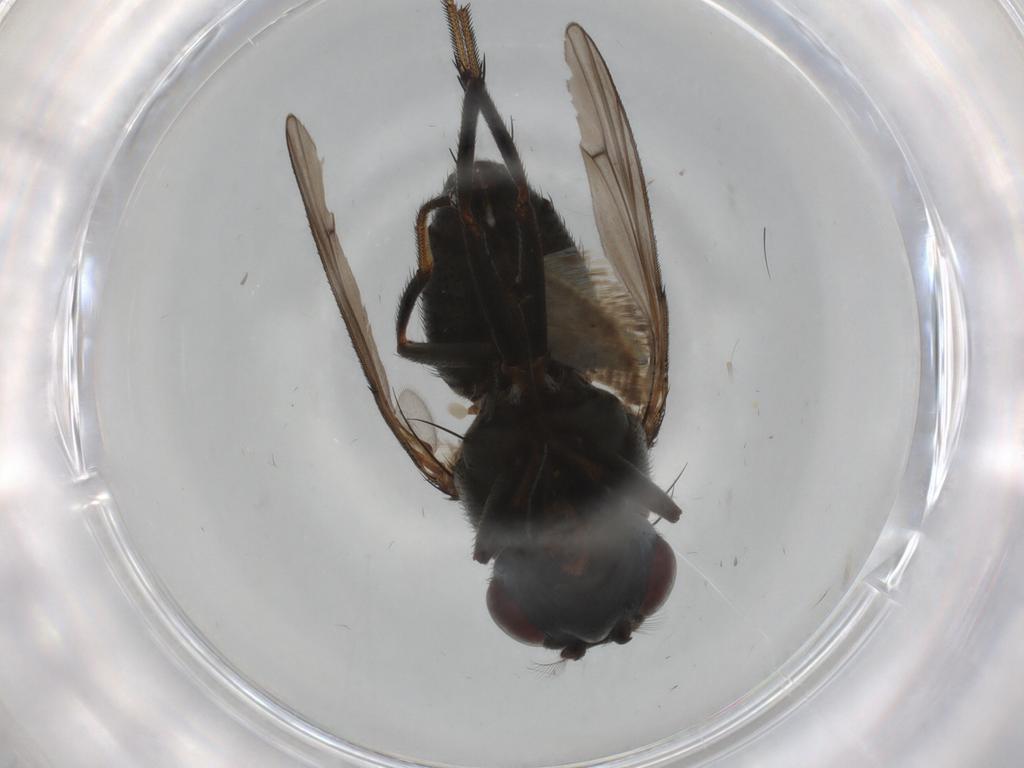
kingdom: Animalia
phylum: Arthropoda
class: Insecta
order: Diptera
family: Ephydridae
